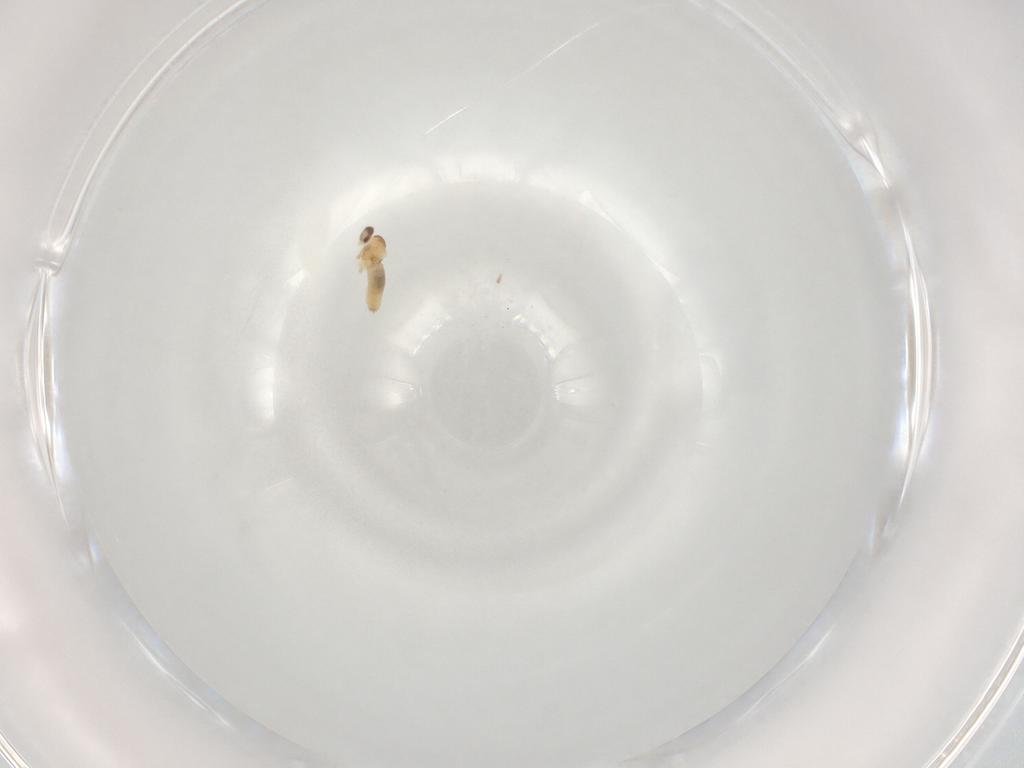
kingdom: Animalia
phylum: Arthropoda
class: Insecta
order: Diptera
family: Cecidomyiidae
